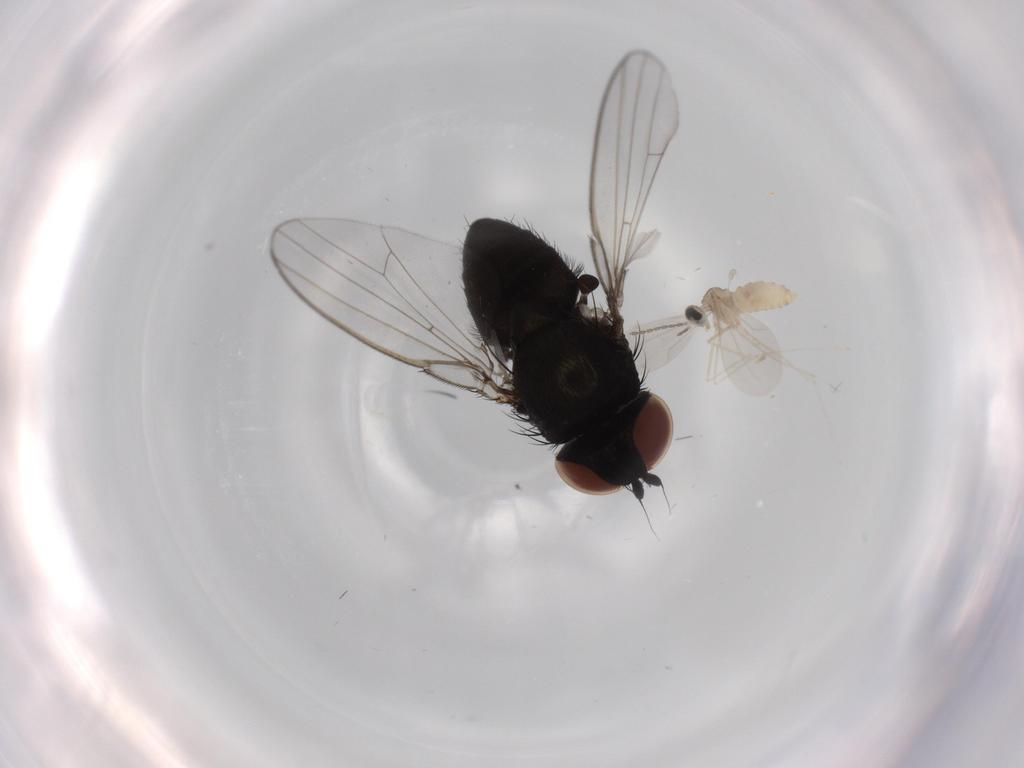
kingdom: Animalia
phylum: Arthropoda
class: Insecta
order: Diptera
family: Cecidomyiidae
